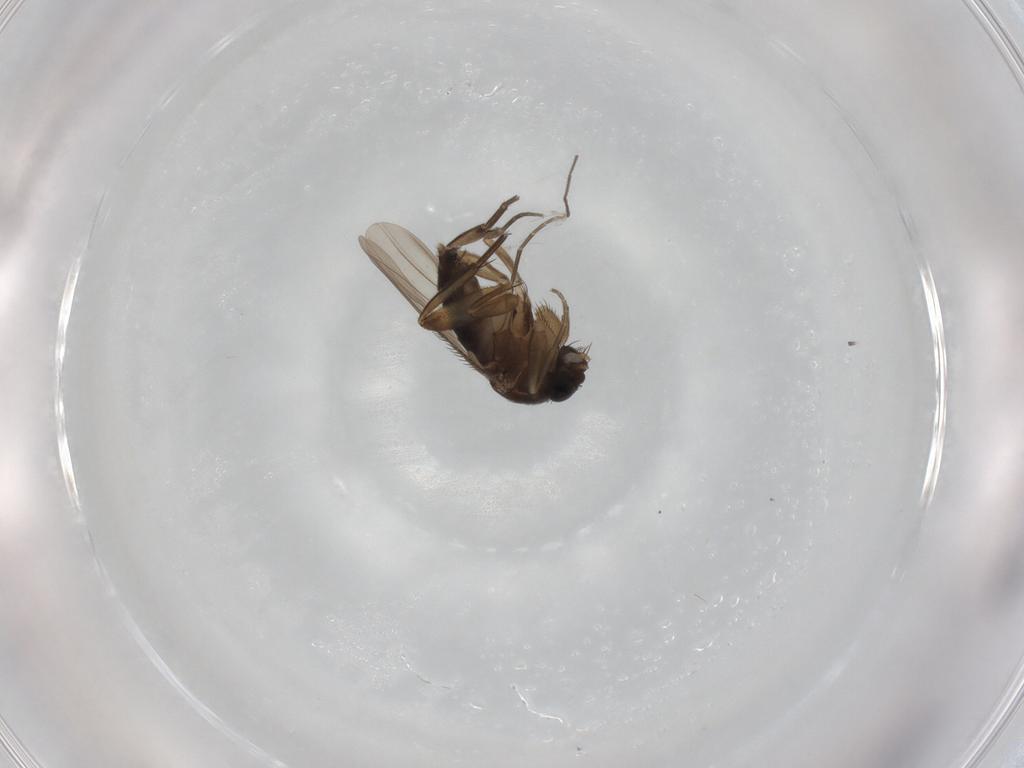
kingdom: Animalia
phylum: Arthropoda
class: Insecta
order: Diptera
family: Phoridae
